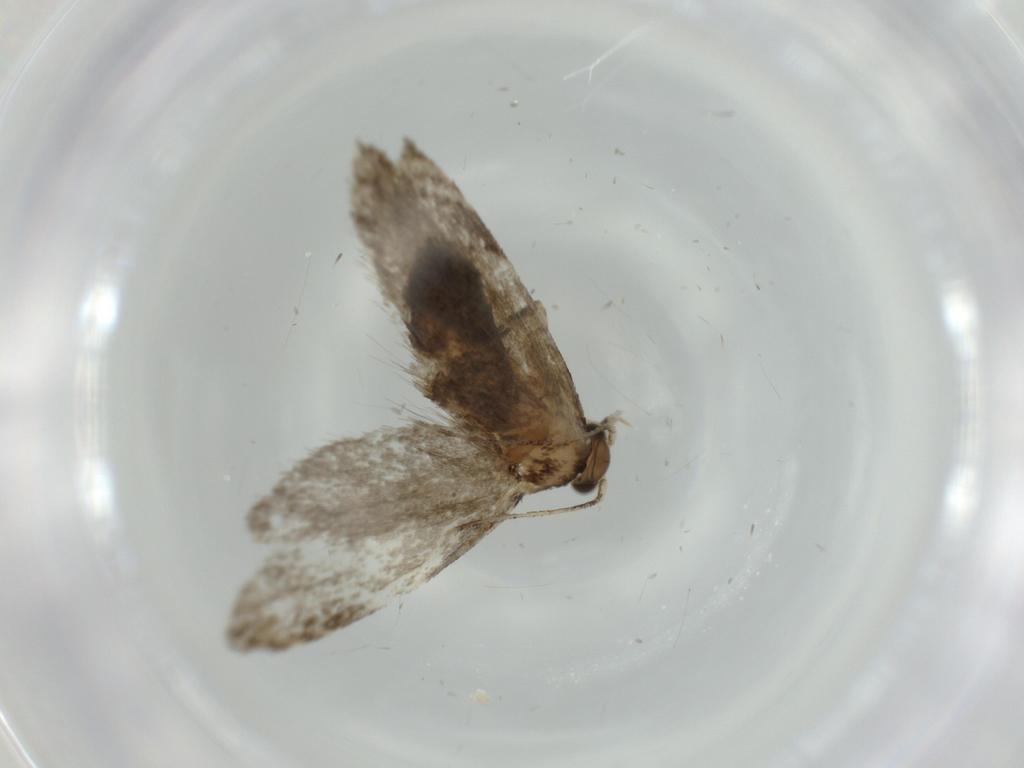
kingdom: Animalia
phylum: Arthropoda
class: Insecta
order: Lepidoptera
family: Tineidae
